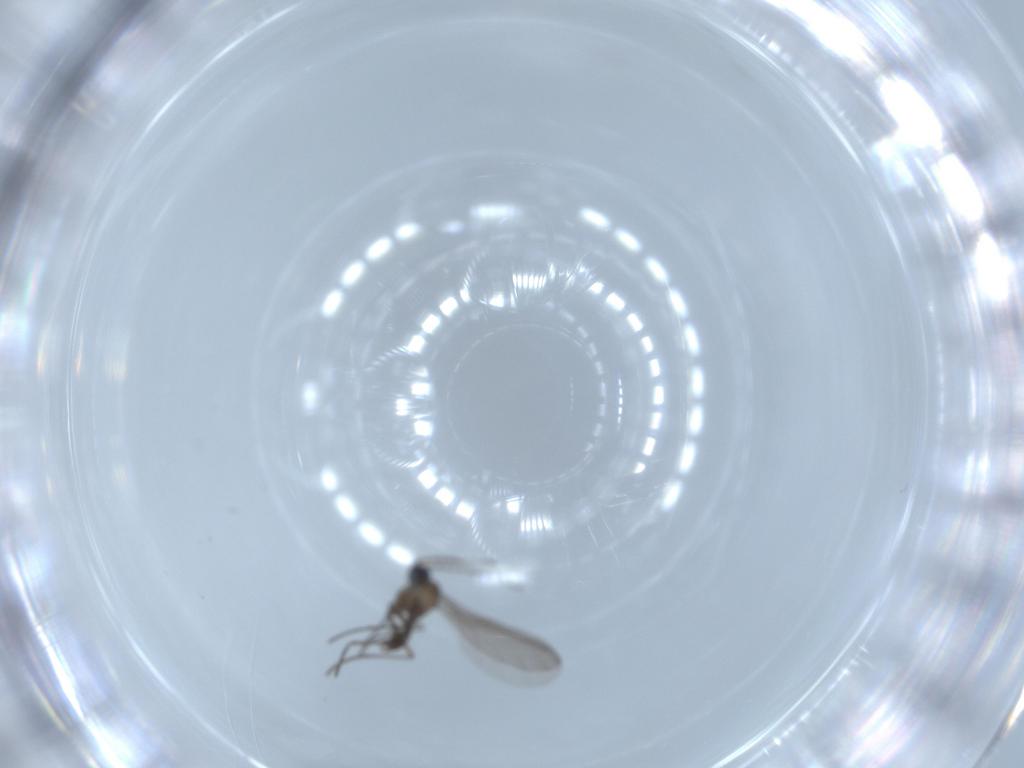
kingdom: Animalia
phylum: Arthropoda
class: Insecta
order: Diptera
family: Sciaridae
